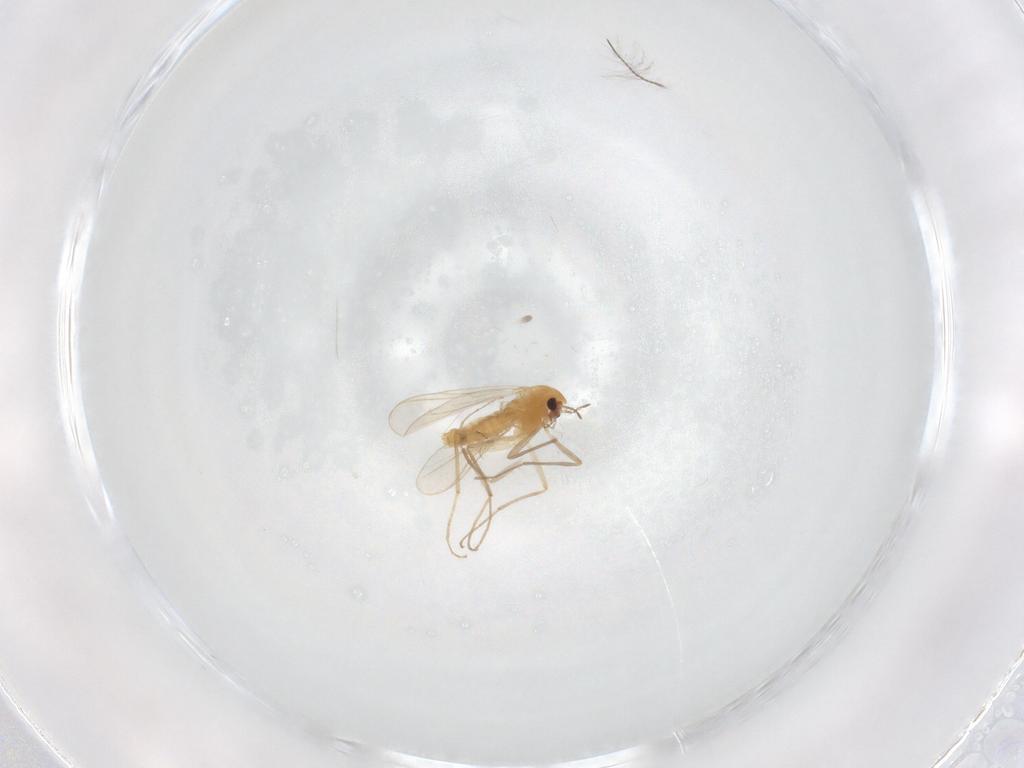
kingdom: Animalia
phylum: Arthropoda
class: Insecta
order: Diptera
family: Chironomidae
